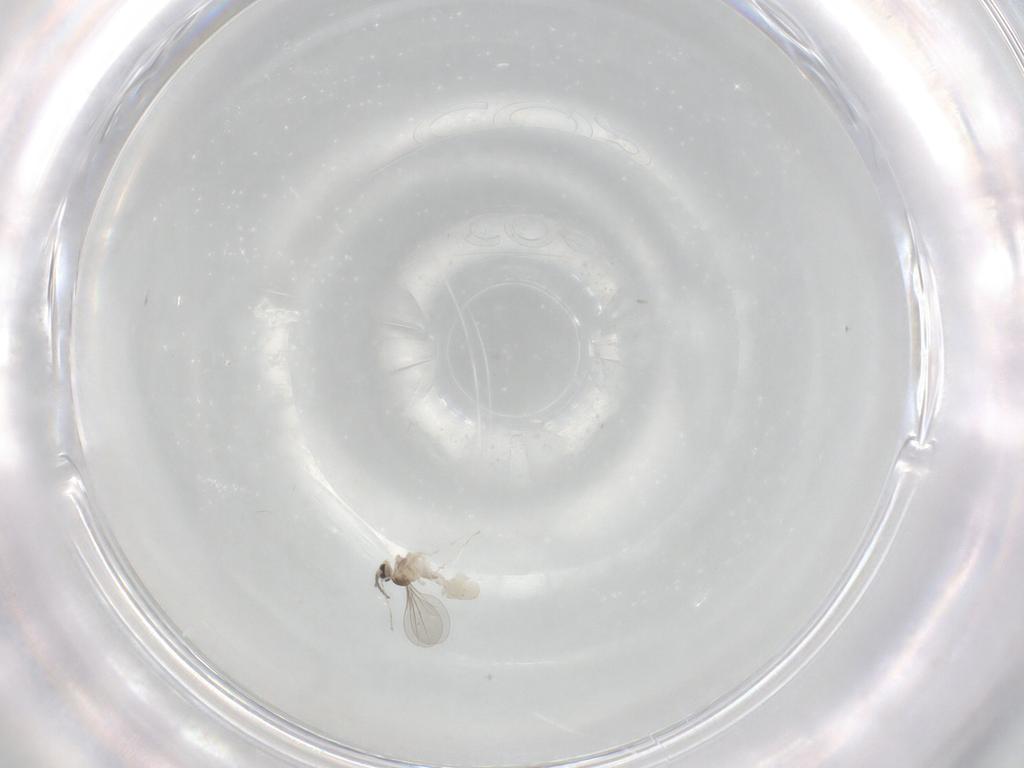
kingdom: Animalia
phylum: Arthropoda
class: Insecta
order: Diptera
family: Cecidomyiidae
